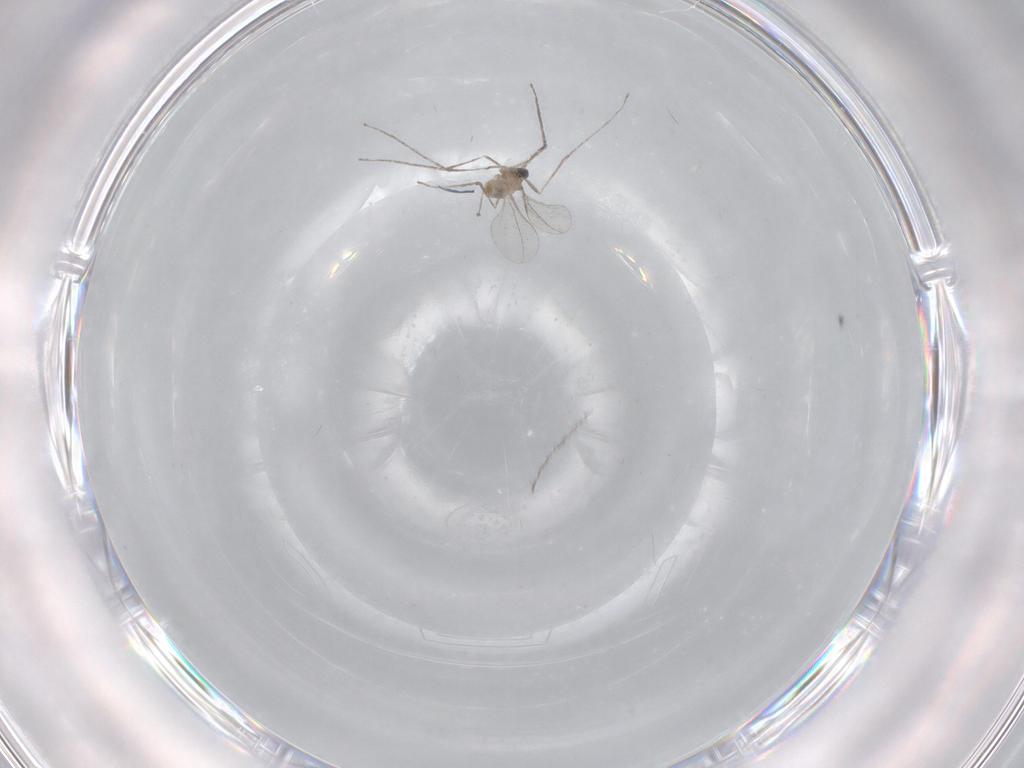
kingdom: Animalia
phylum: Arthropoda
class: Insecta
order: Diptera
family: Cecidomyiidae
